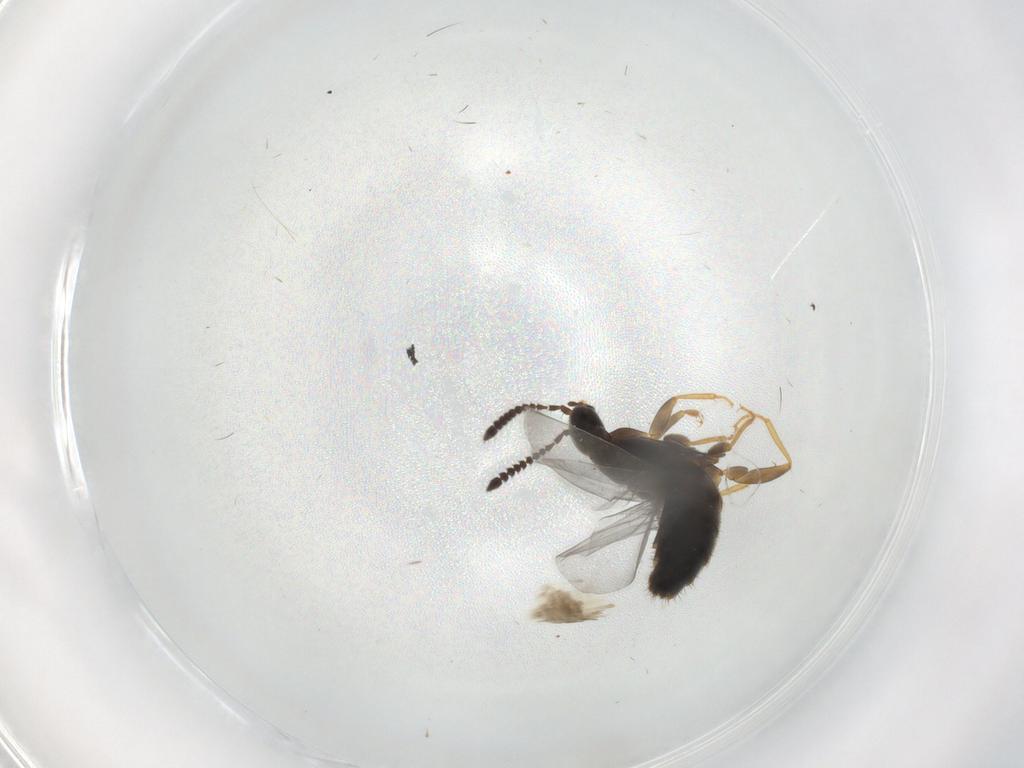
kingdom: Animalia
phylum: Arthropoda
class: Insecta
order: Coleoptera
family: Staphylinidae
